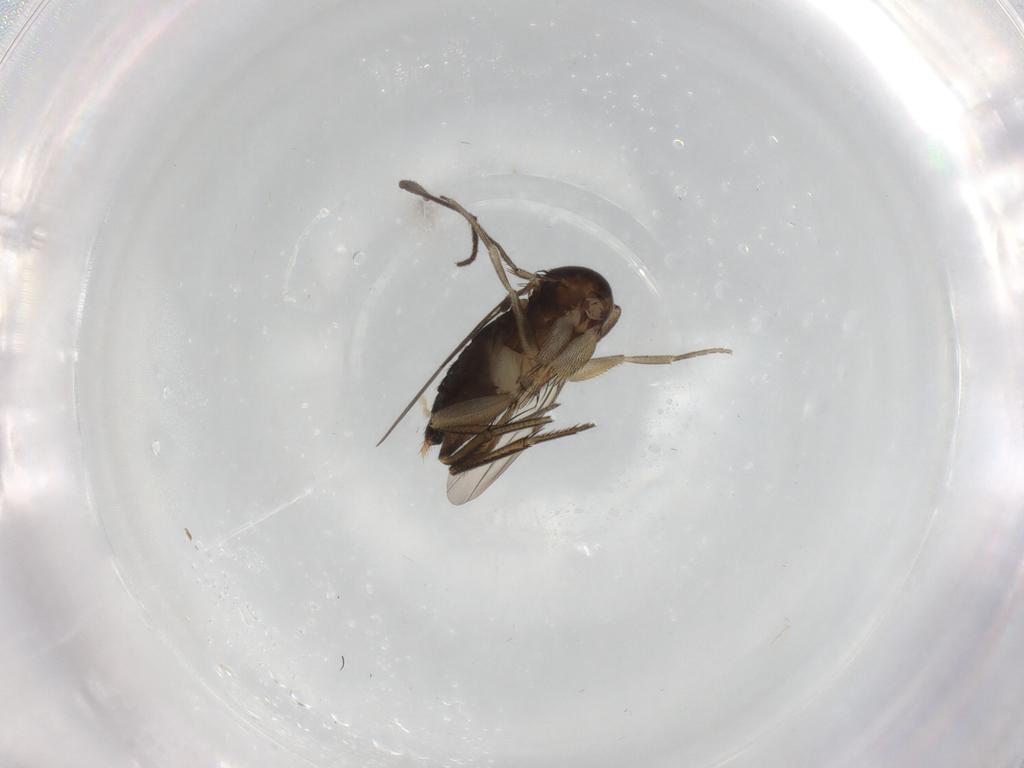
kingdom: Animalia
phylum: Arthropoda
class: Insecta
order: Diptera
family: Phoridae
